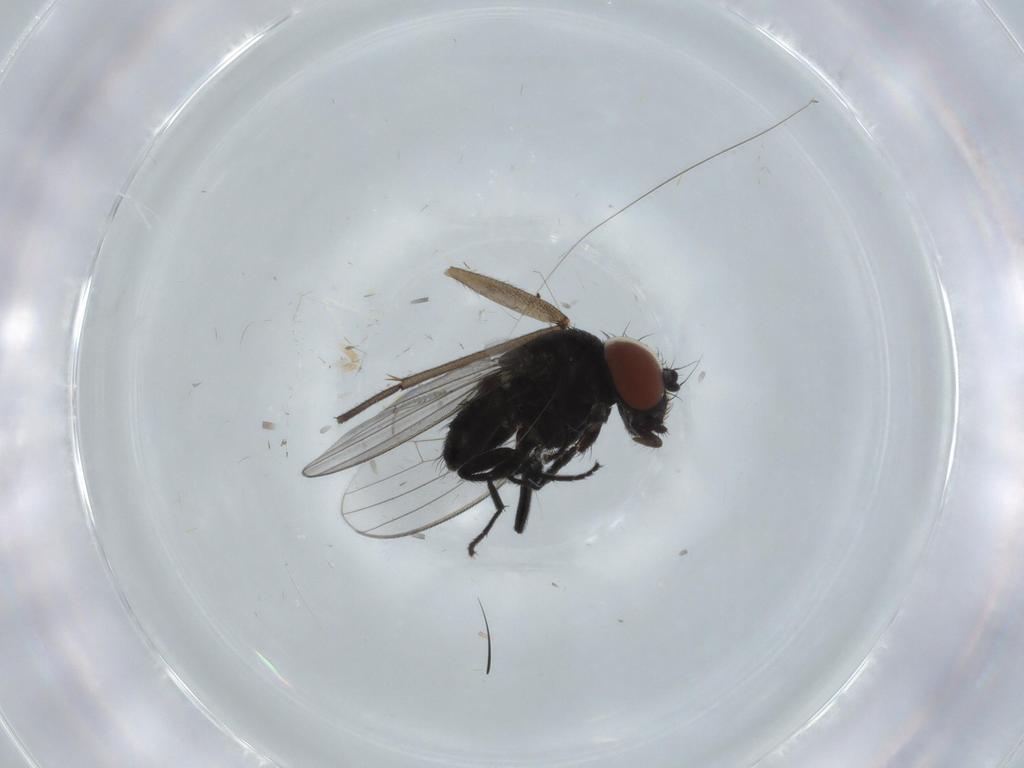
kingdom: Animalia
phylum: Arthropoda
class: Insecta
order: Diptera
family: Milichiidae
